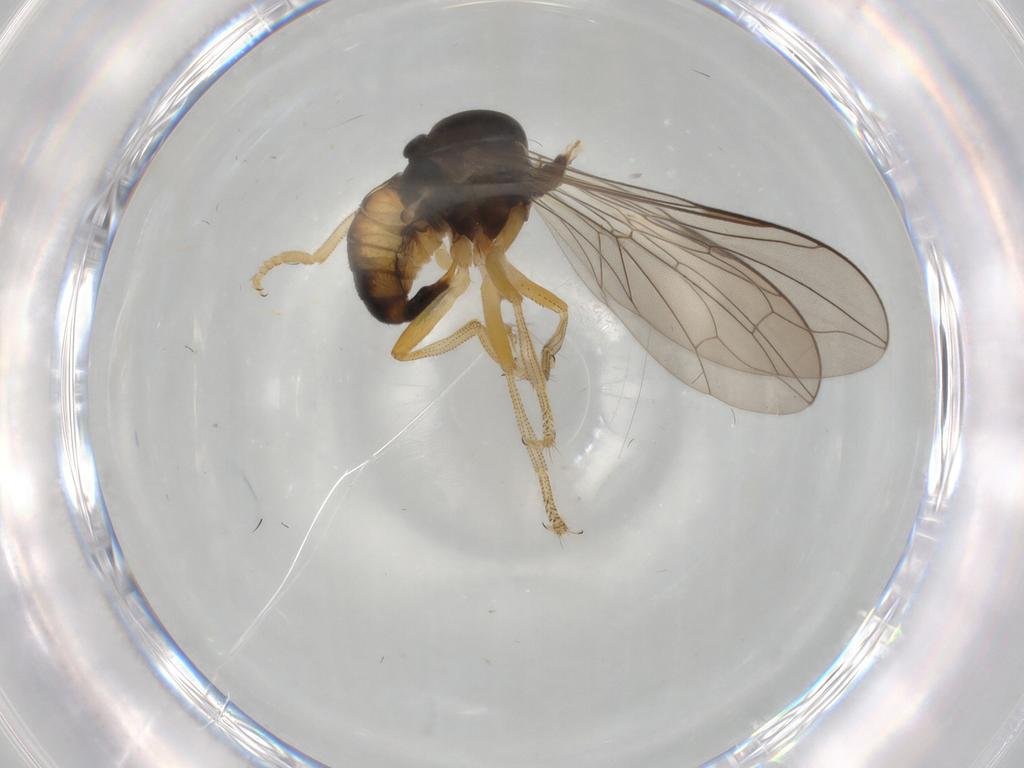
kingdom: Animalia
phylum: Arthropoda
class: Insecta
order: Diptera
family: Pipunculidae
